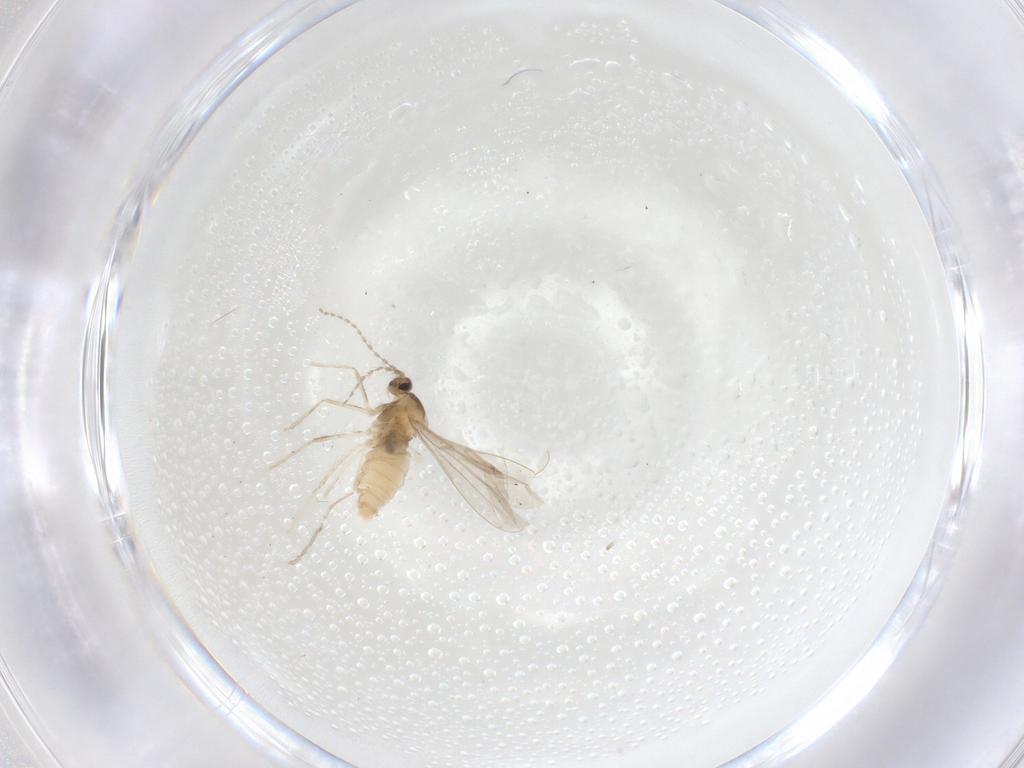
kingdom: Animalia
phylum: Arthropoda
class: Insecta
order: Diptera
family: Cecidomyiidae
